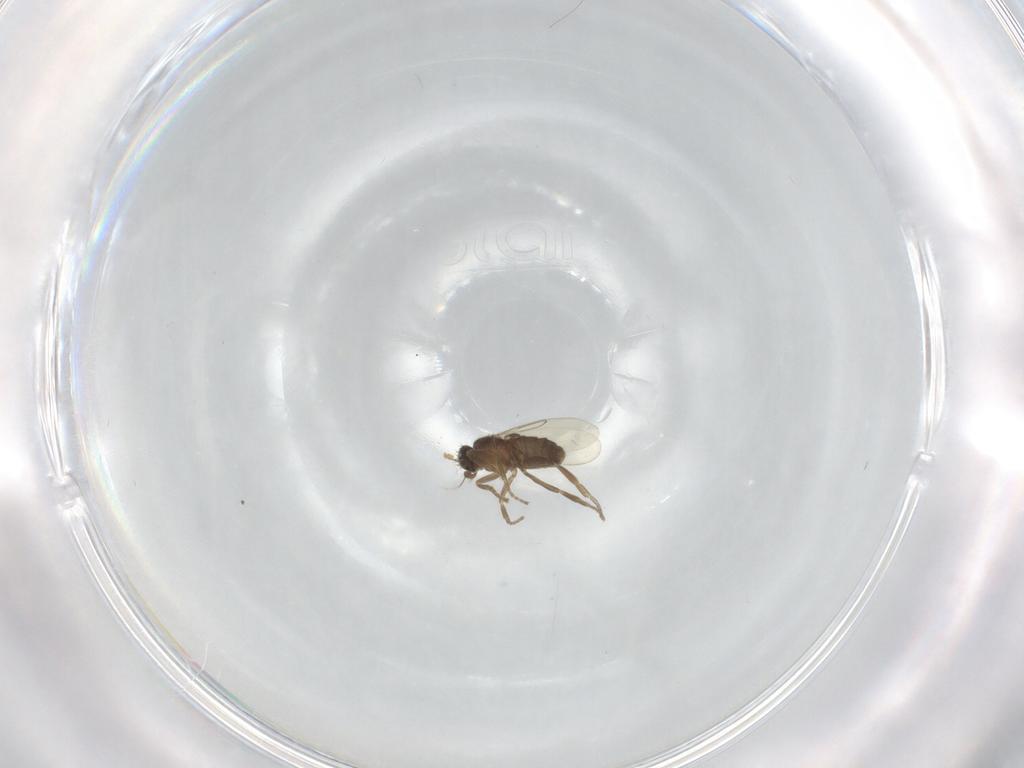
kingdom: Animalia
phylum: Arthropoda
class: Insecta
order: Diptera
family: Phoridae
